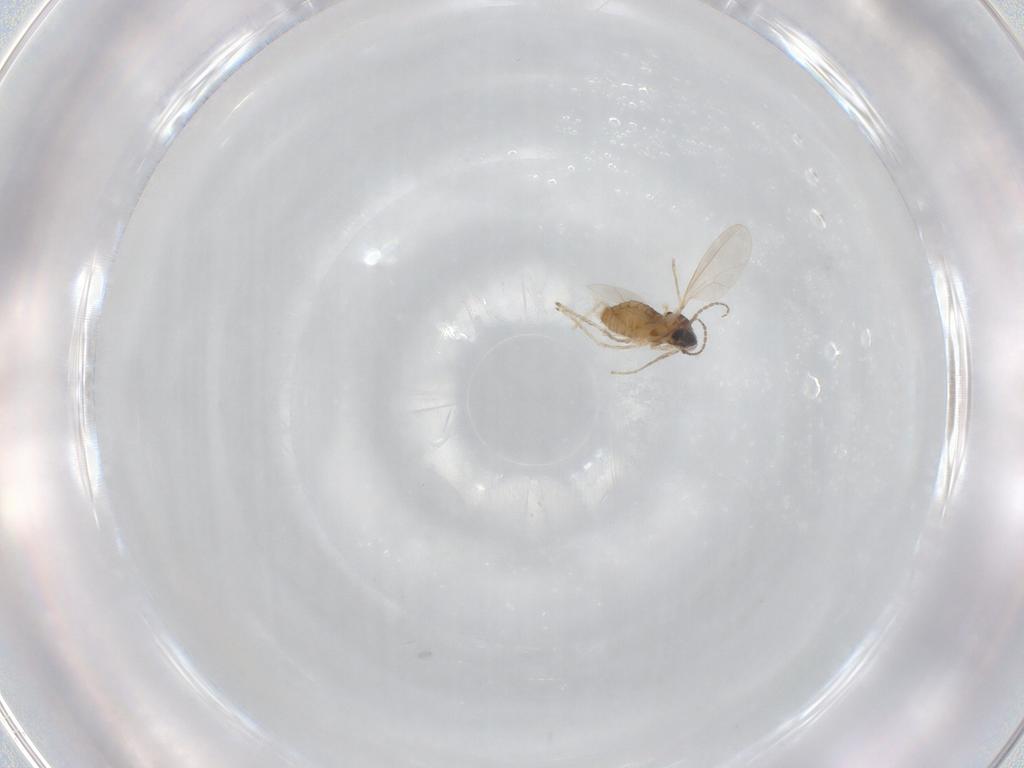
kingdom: Animalia
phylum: Arthropoda
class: Insecta
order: Diptera
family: Cecidomyiidae
